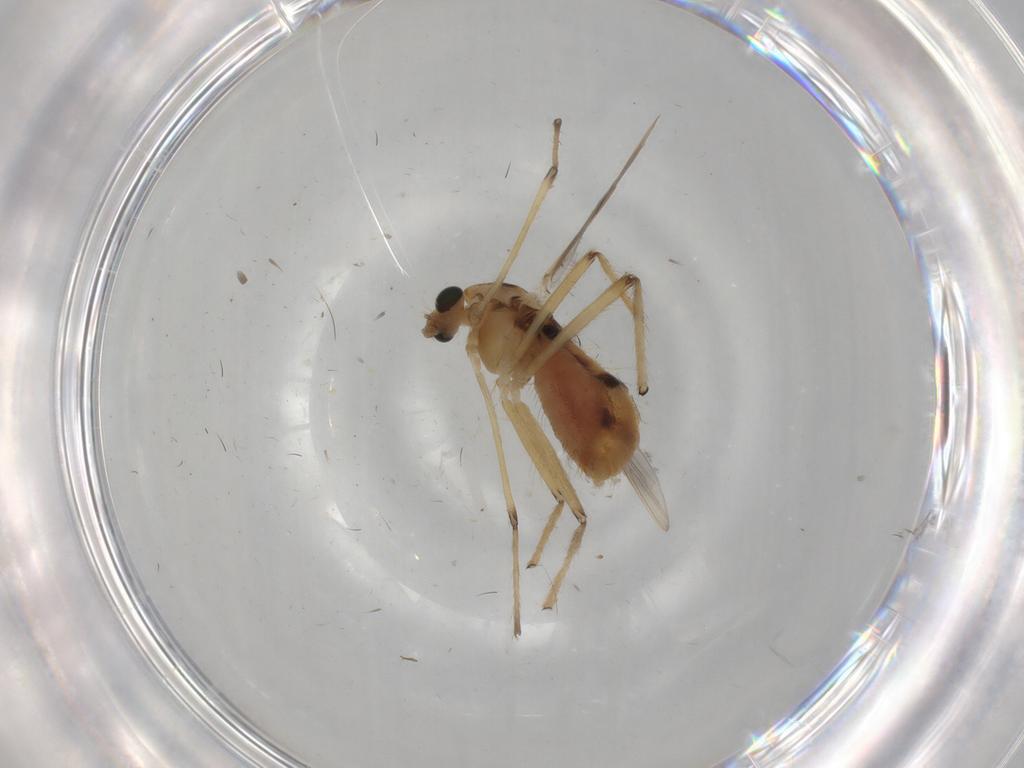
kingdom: Animalia
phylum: Arthropoda
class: Insecta
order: Diptera
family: Chironomidae
